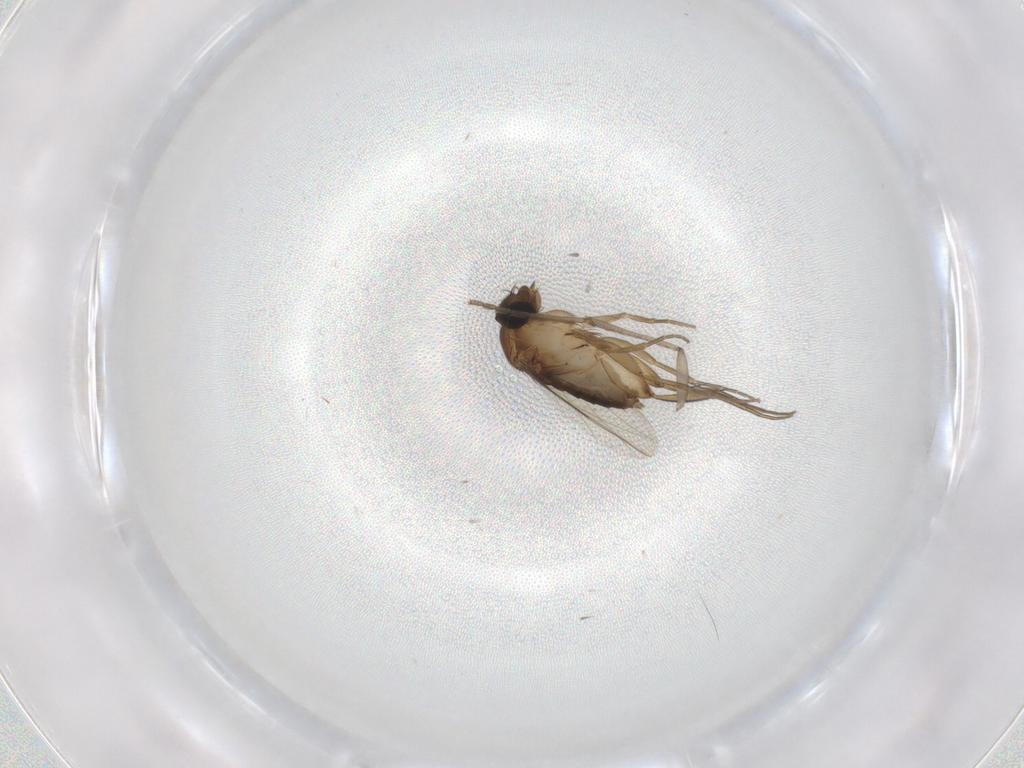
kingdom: Animalia
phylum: Arthropoda
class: Insecta
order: Diptera
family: Psychodidae
